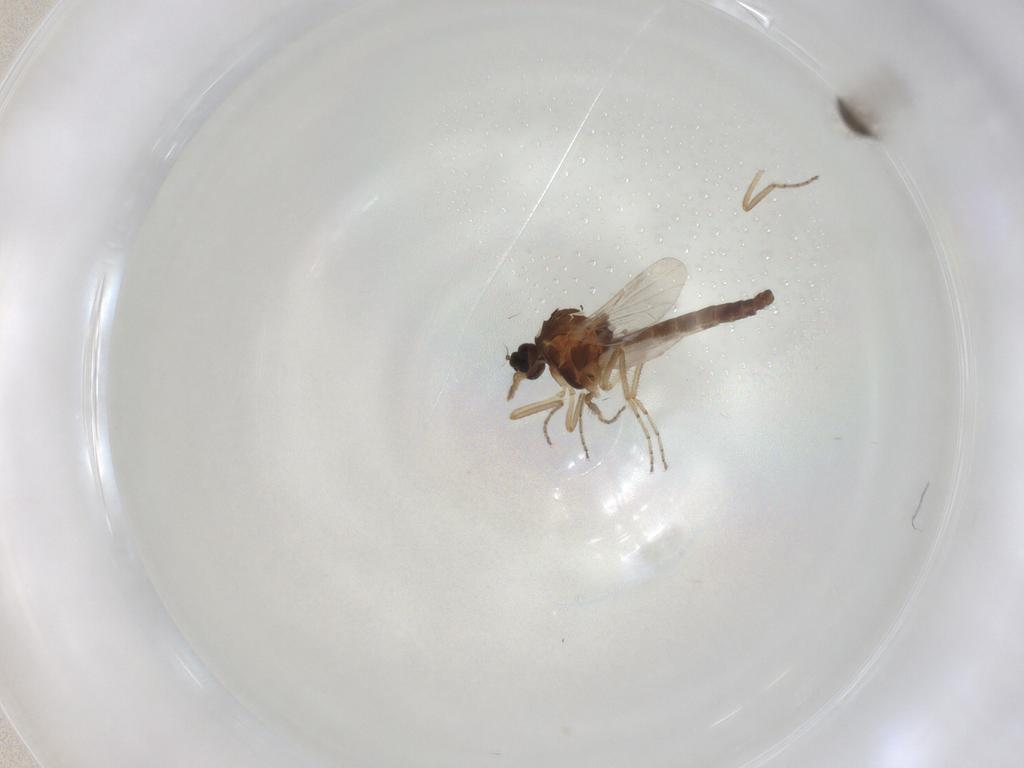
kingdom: Animalia
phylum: Arthropoda
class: Insecta
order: Diptera
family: Ceratopogonidae
